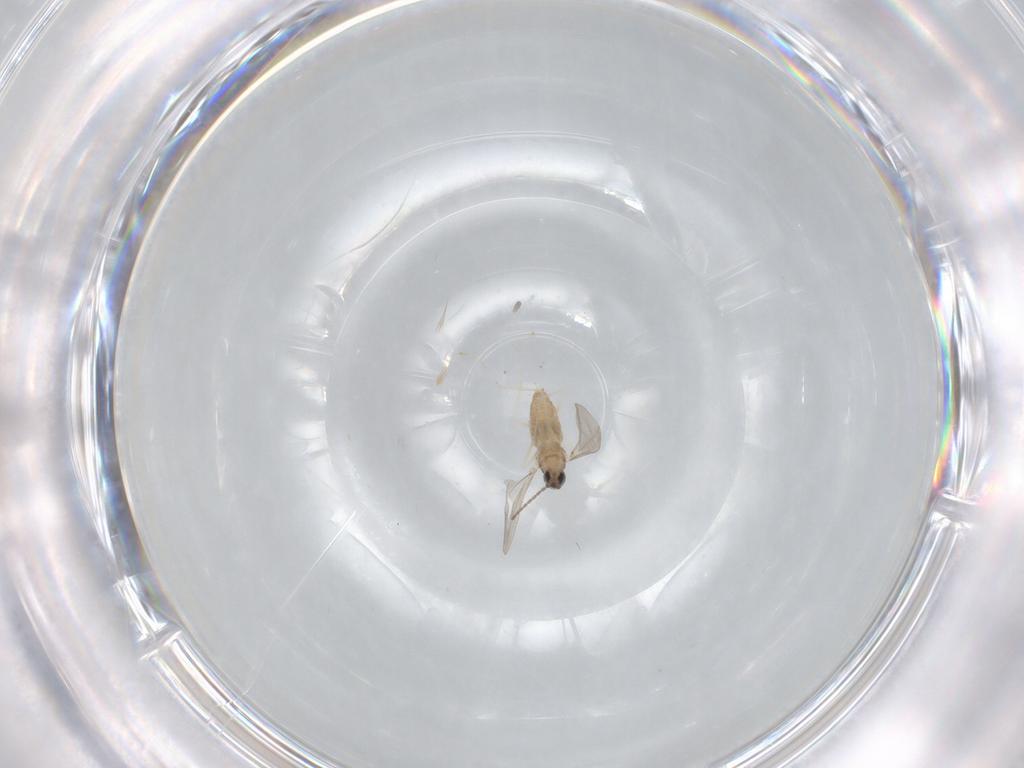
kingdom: Animalia
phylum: Arthropoda
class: Insecta
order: Diptera
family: Cecidomyiidae
